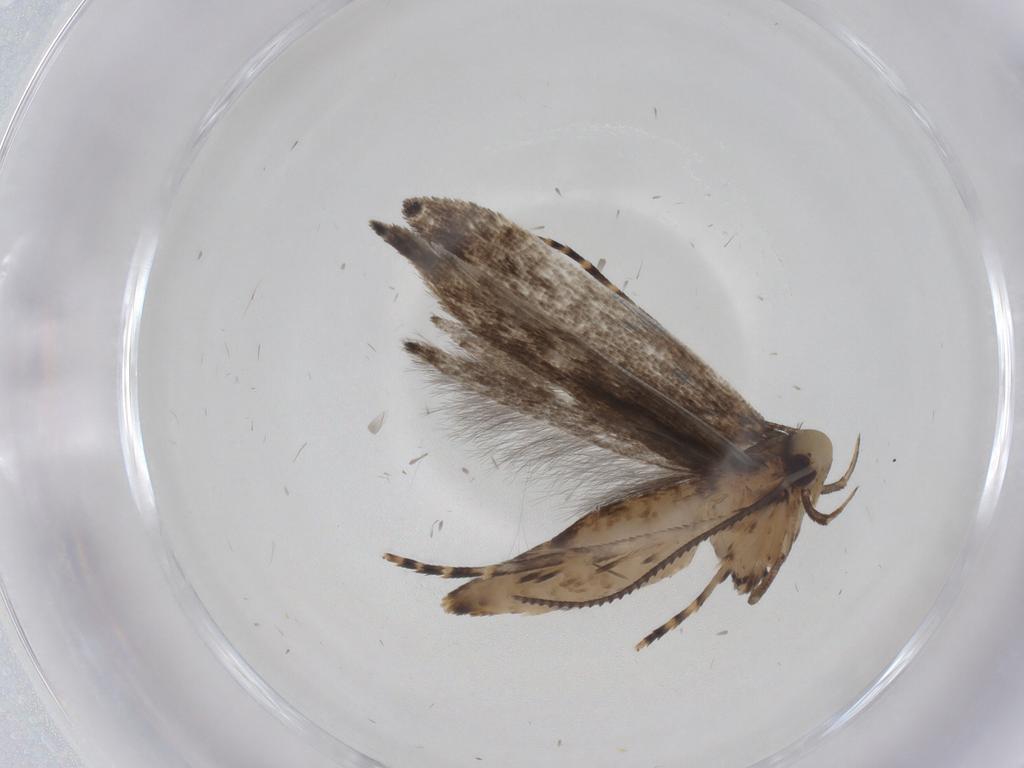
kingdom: Animalia
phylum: Arthropoda
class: Insecta
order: Lepidoptera
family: Cosmopterigidae
